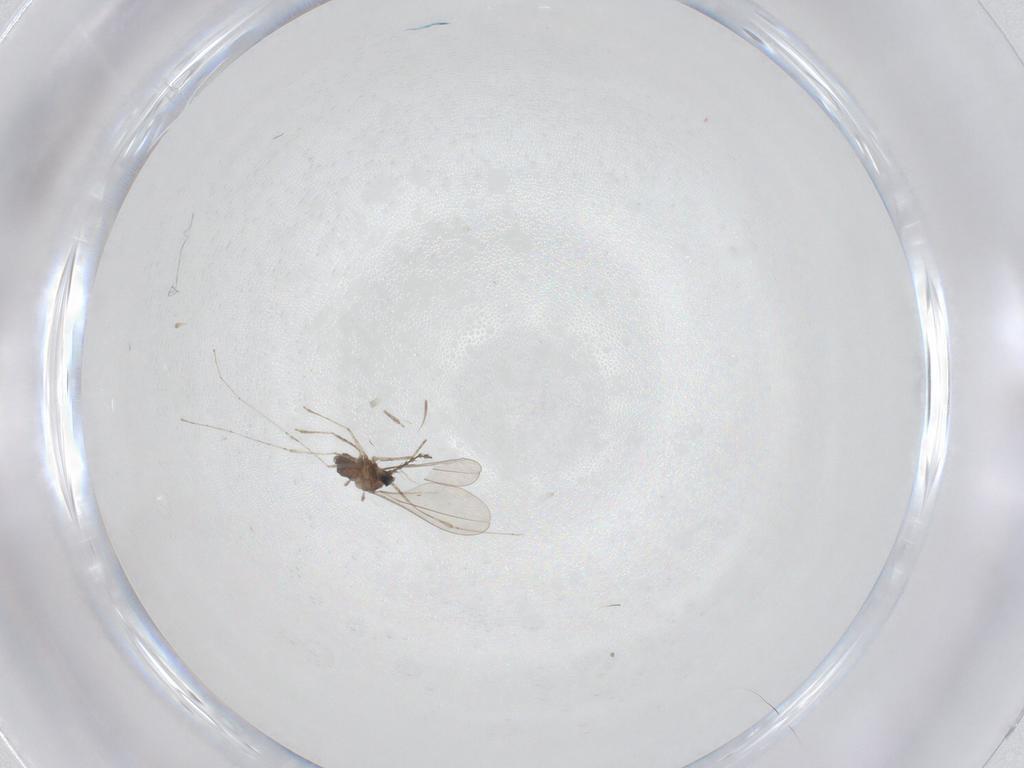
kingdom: Animalia
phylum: Arthropoda
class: Insecta
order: Diptera
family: Cecidomyiidae
